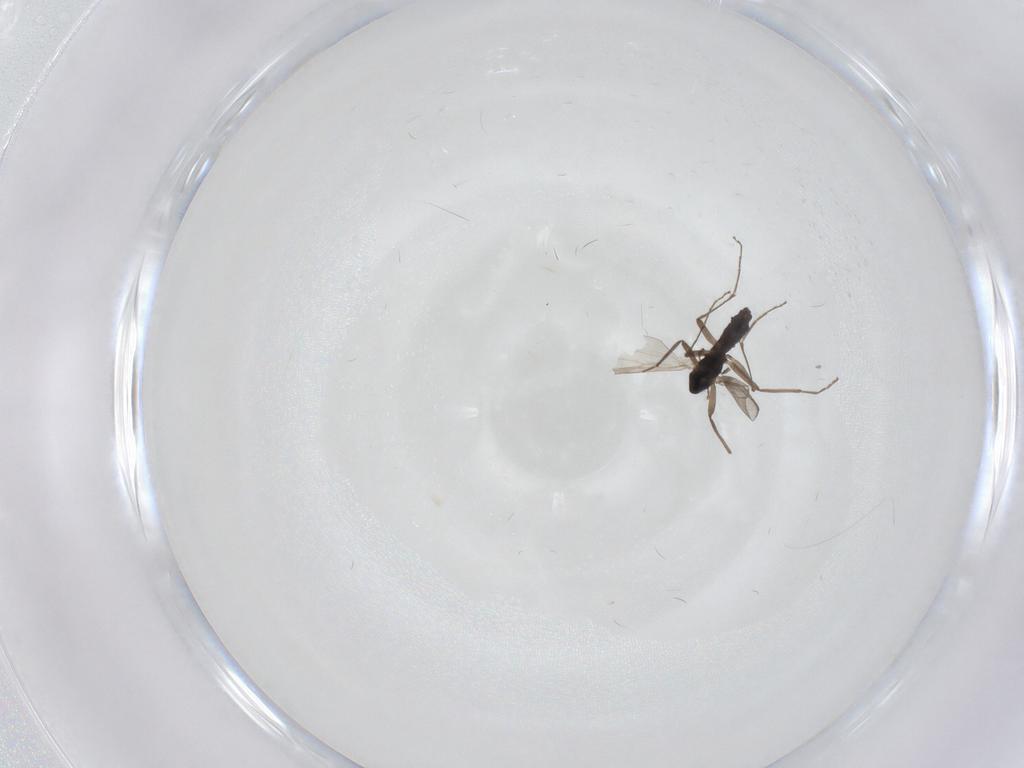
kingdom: Animalia
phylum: Arthropoda
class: Insecta
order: Diptera
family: Chironomidae
